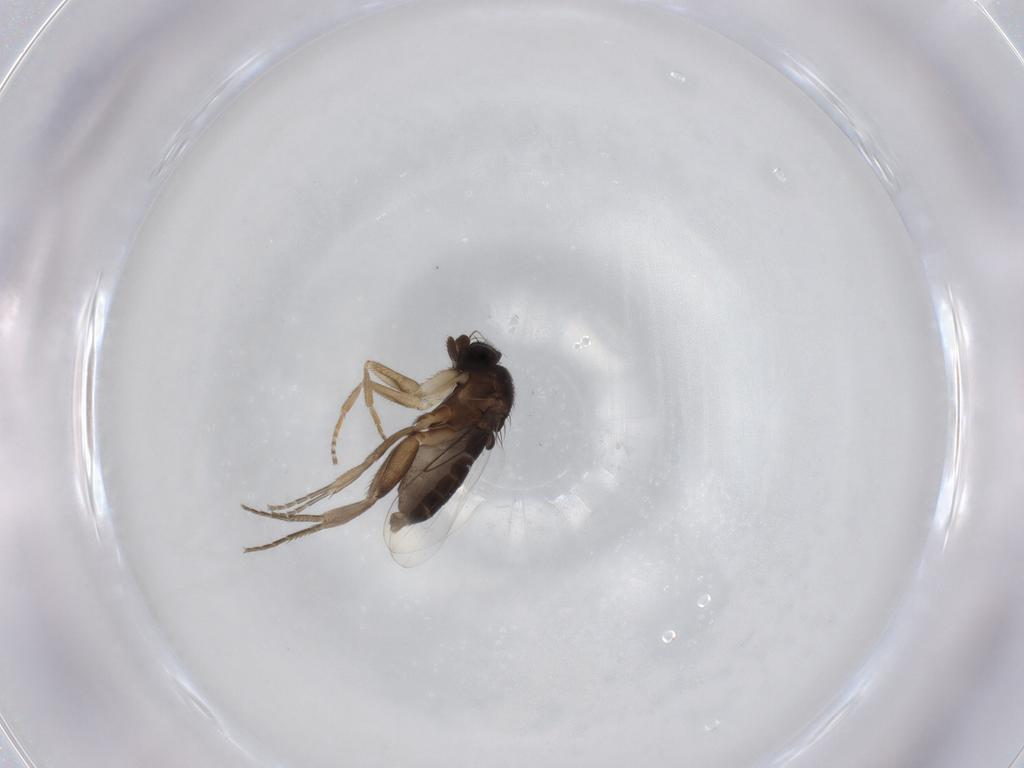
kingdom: Animalia
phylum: Arthropoda
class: Insecta
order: Diptera
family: Phoridae
